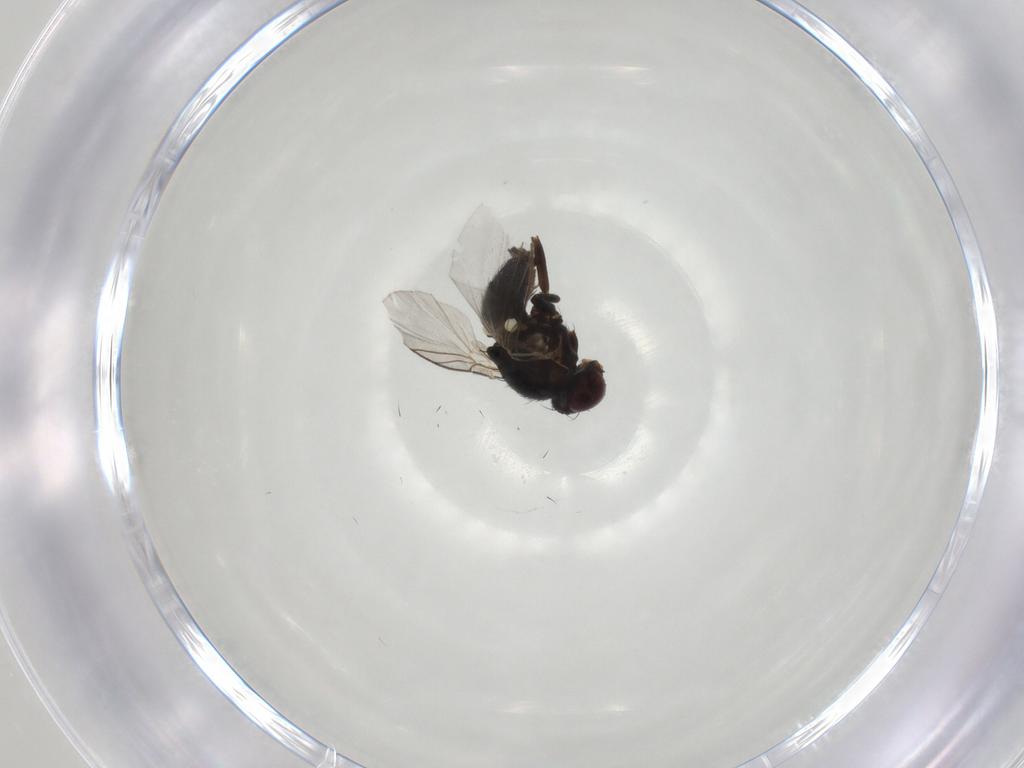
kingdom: Animalia
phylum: Arthropoda
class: Insecta
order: Diptera
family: Agromyzidae
